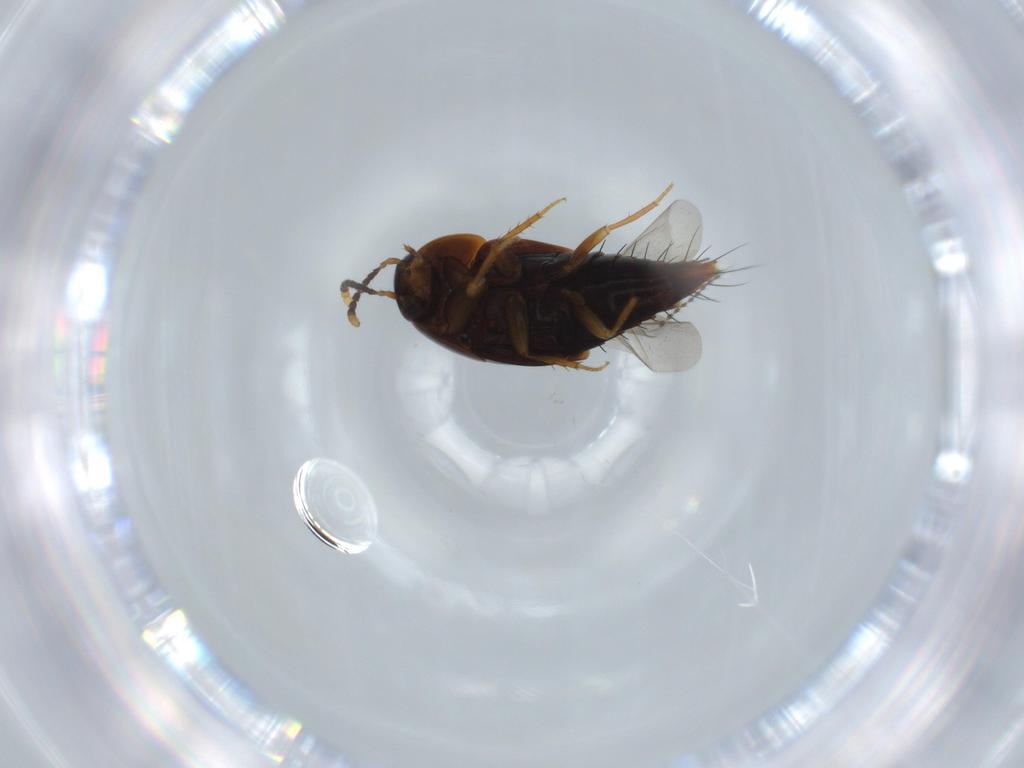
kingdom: Animalia
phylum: Arthropoda
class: Insecta
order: Coleoptera
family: Staphylinidae
